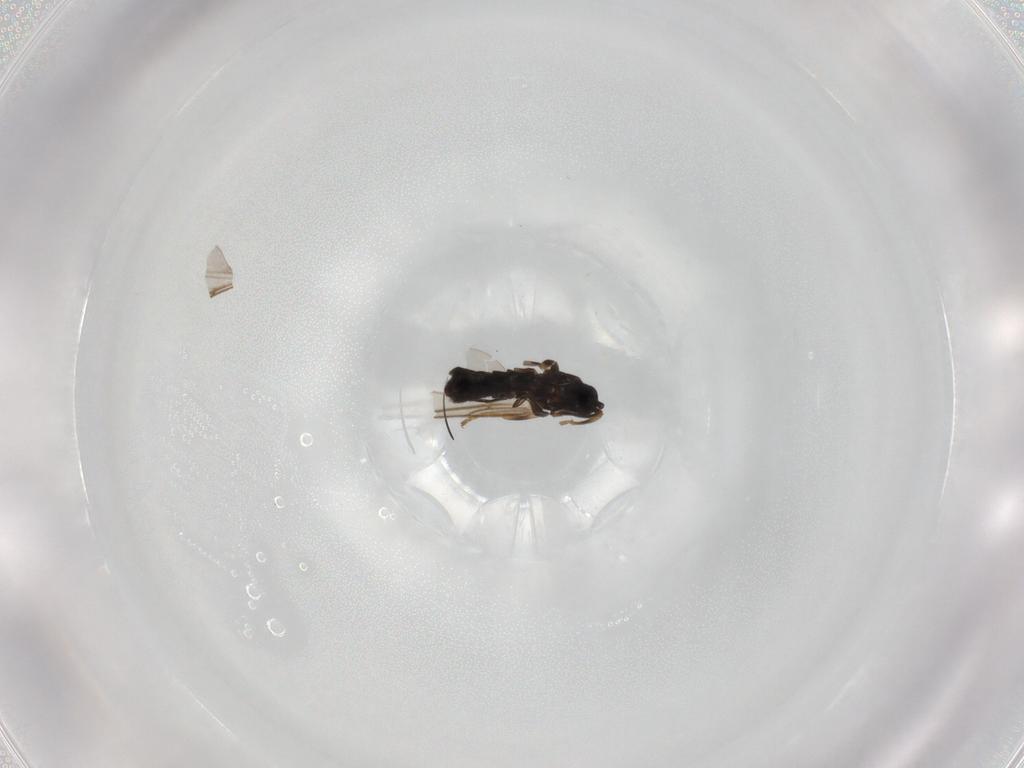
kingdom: Animalia
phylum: Arthropoda
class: Insecta
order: Diptera
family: Scatopsidae
